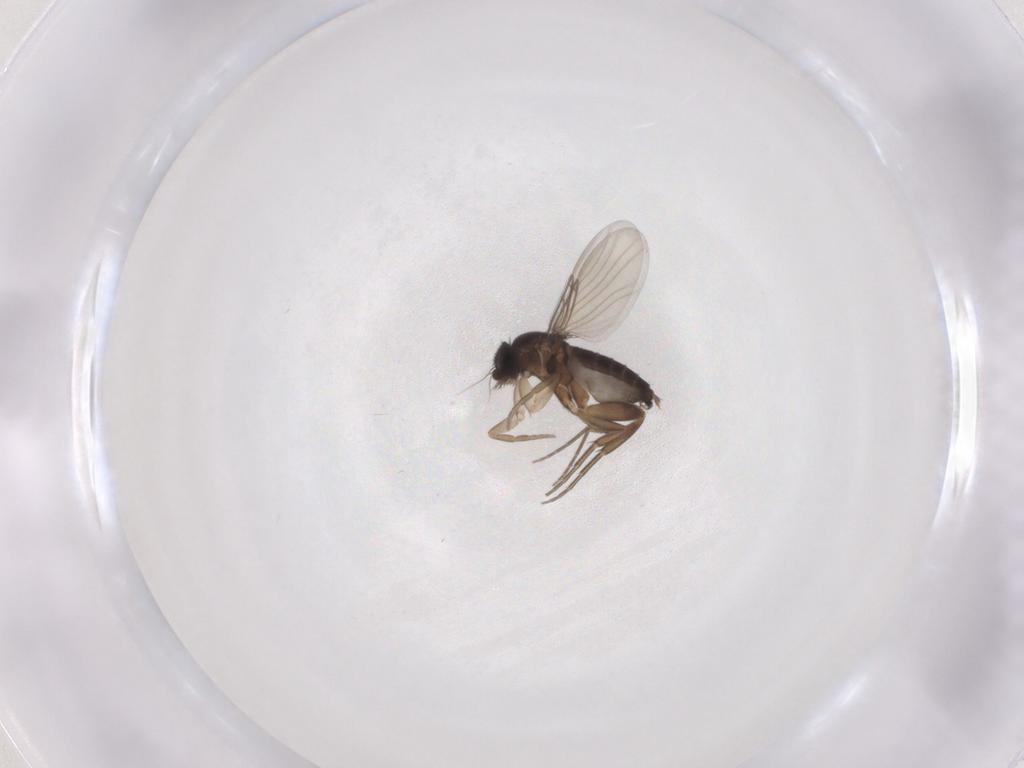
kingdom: Animalia
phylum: Arthropoda
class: Insecta
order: Diptera
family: Phoridae
